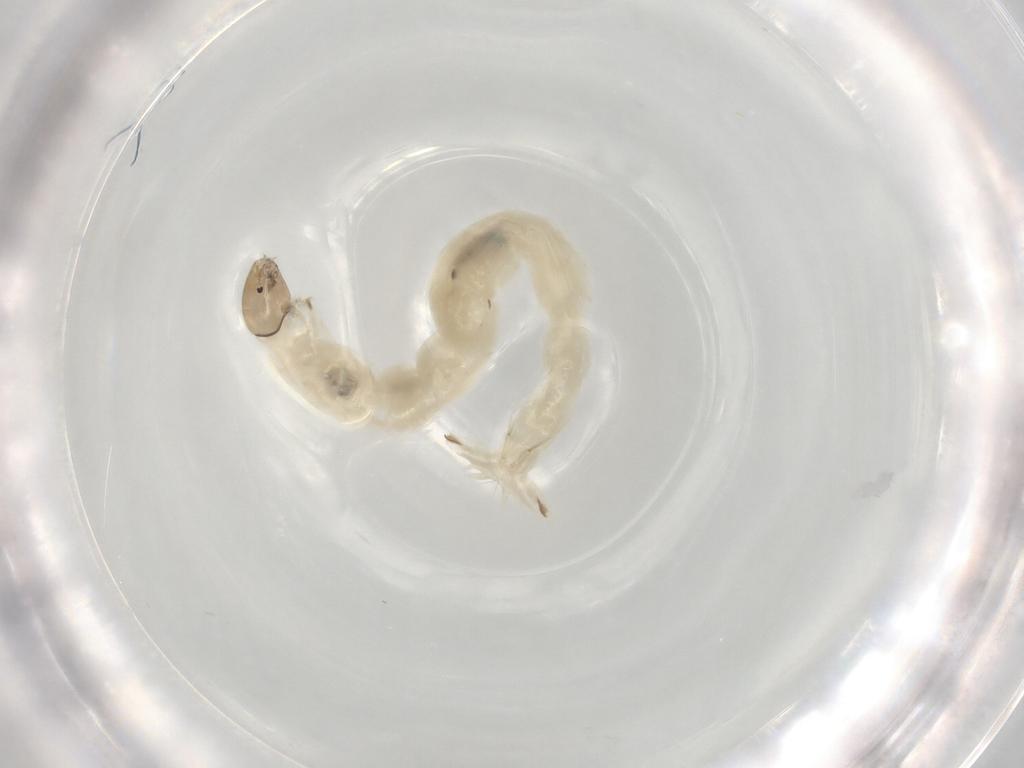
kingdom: Animalia
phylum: Arthropoda
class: Insecta
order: Diptera
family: Chironomidae
